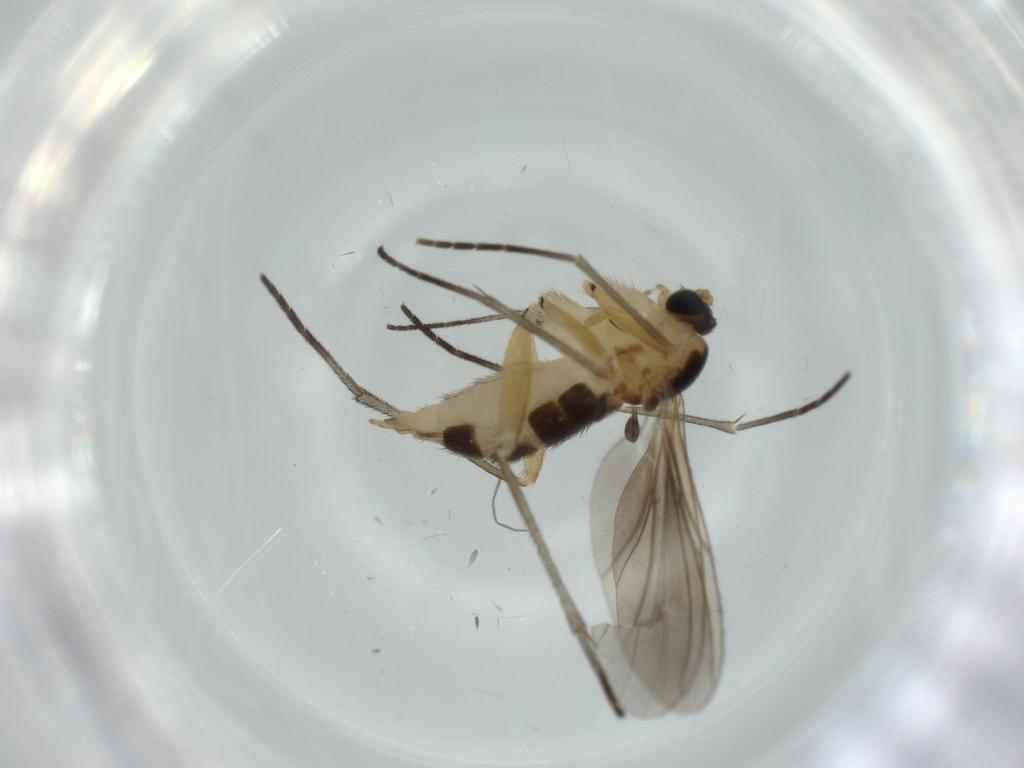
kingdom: Animalia
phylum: Arthropoda
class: Insecta
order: Diptera
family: Sciaridae
